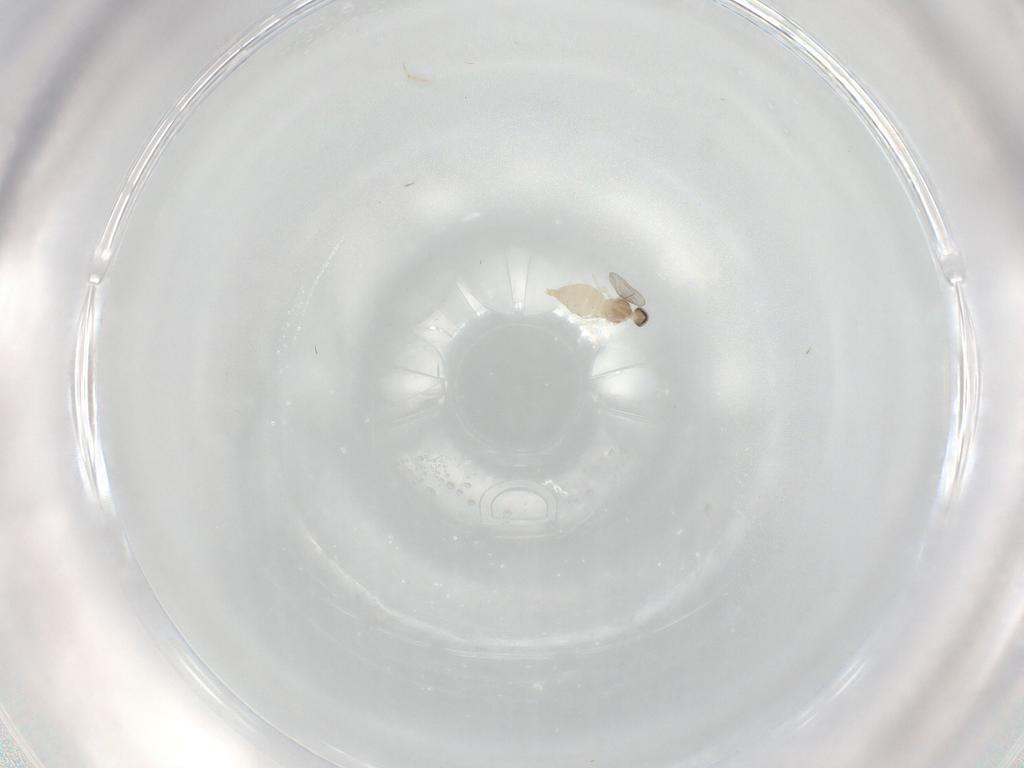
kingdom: Animalia
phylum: Arthropoda
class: Insecta
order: Diptera
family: Cecidomyiidae
